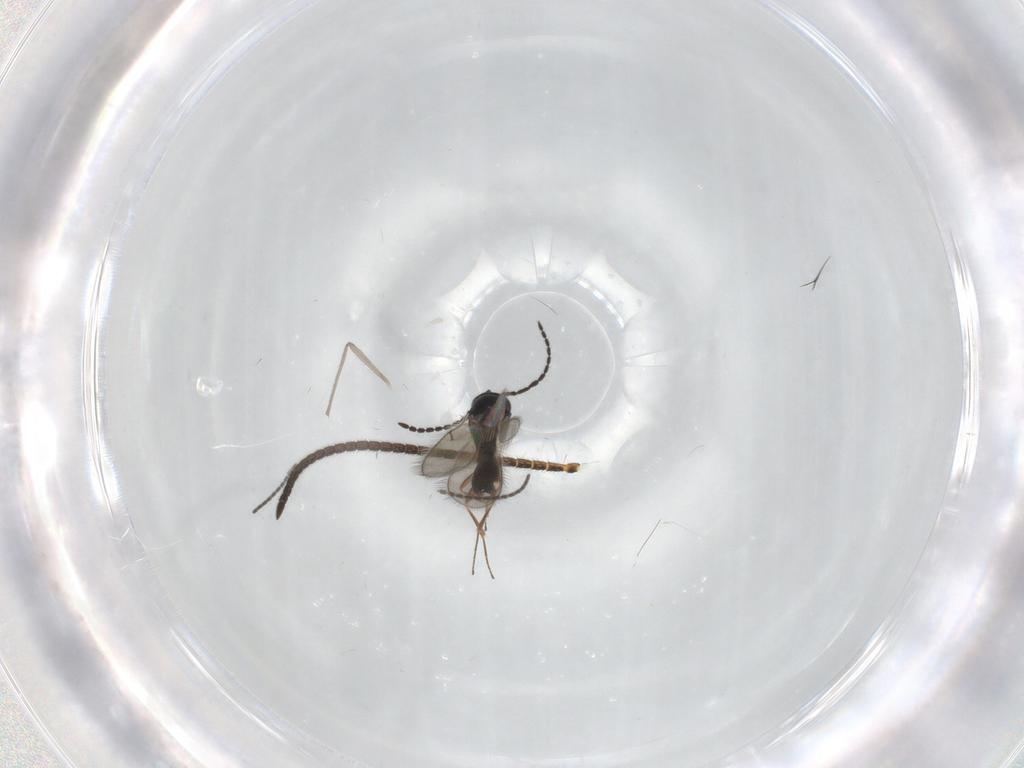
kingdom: Animalia
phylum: Arthropoda
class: Insecta
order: Hymenoptera
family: Scelionidae
